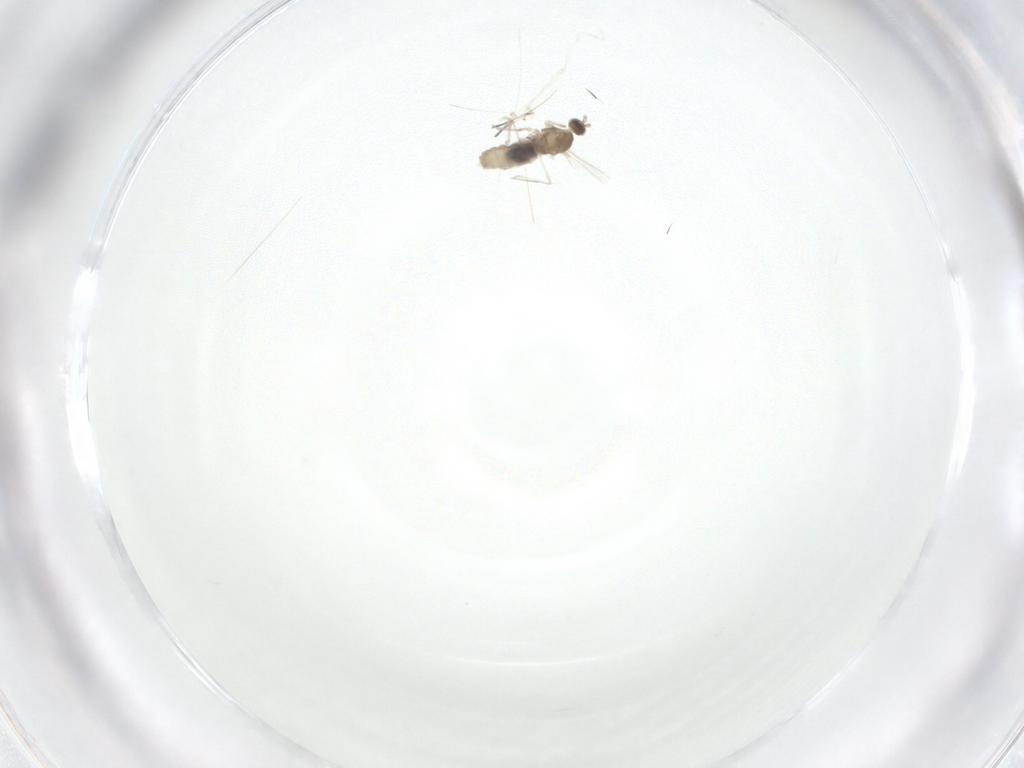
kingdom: Animalia
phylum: Arthropoda
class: Insecta
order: Diptera
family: Cecidomyiidae
